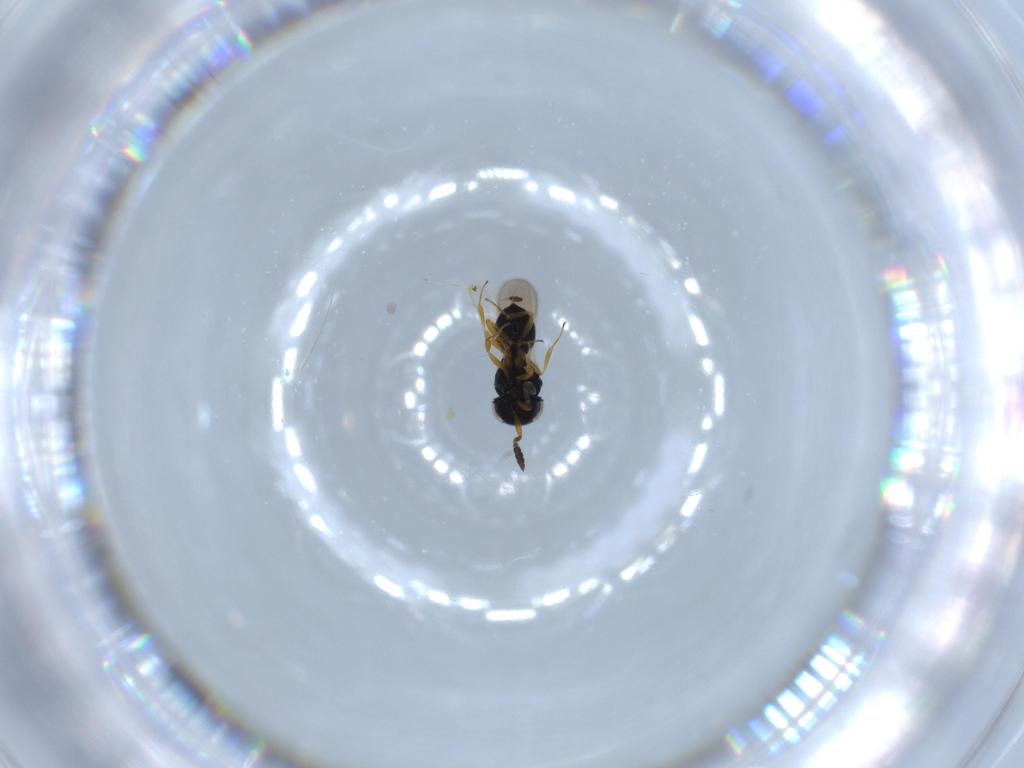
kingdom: Animalia
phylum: Arthropoda
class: Insecta
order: Hymenoptera
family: Scelionidae
